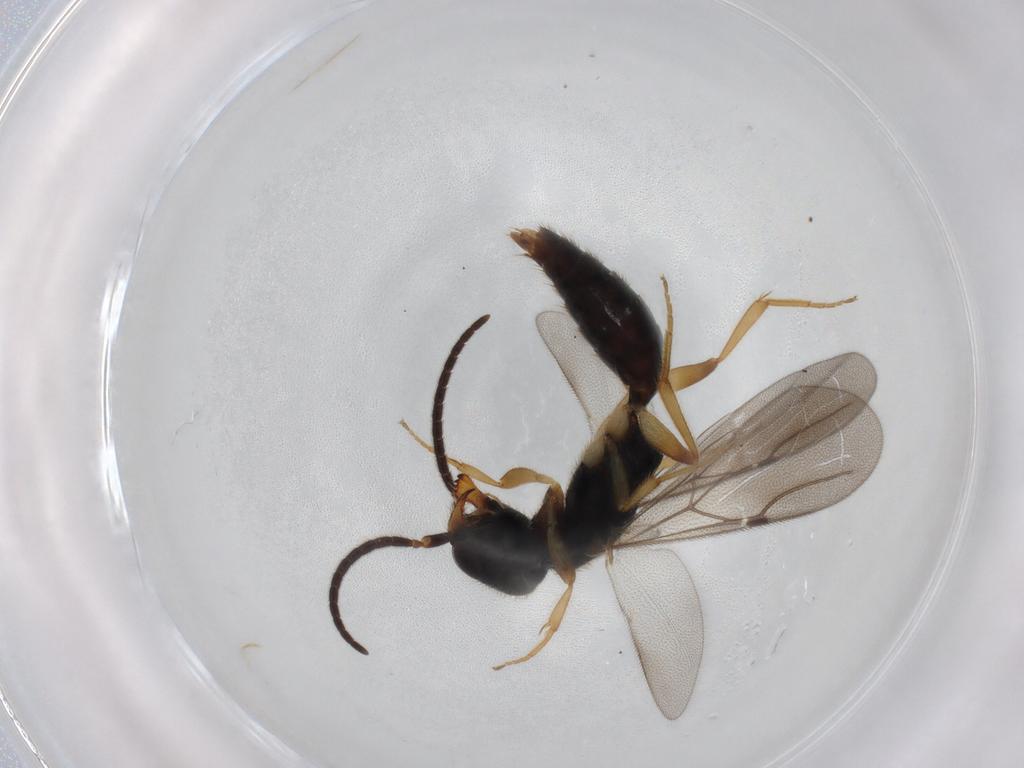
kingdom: Animalia
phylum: Arthropoda
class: Insecta
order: Hymenoptera
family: Bethylidae
